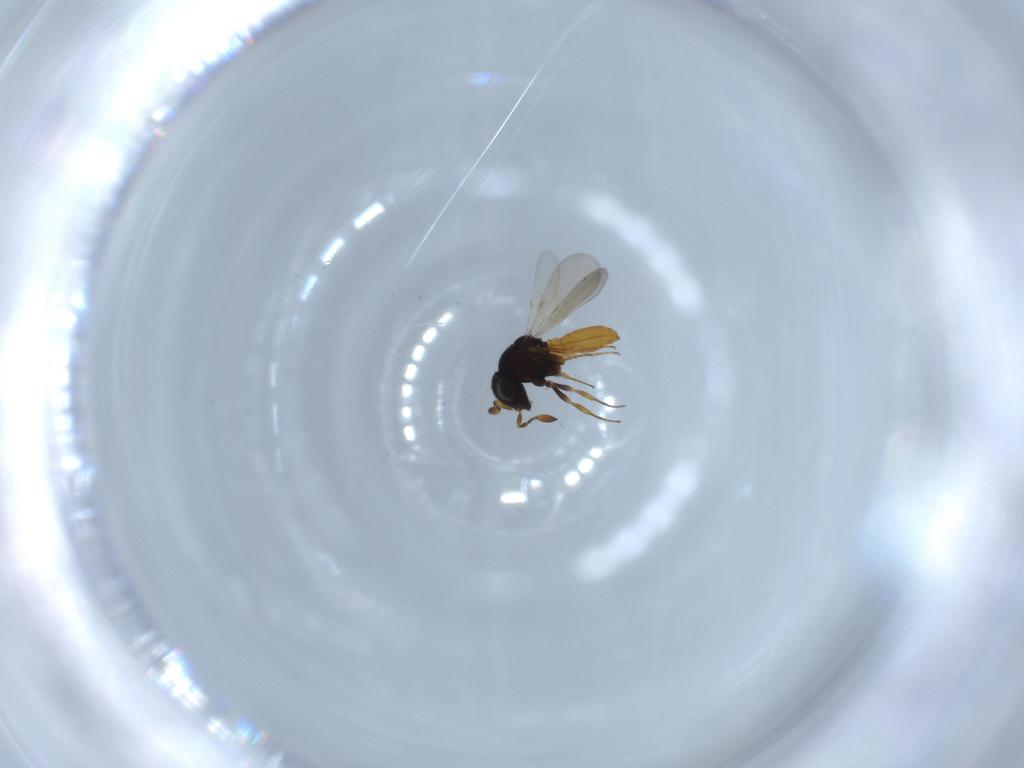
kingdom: Animalia
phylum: Arthropoda
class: Insecta
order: Hymenoptera
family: Scelionidae
